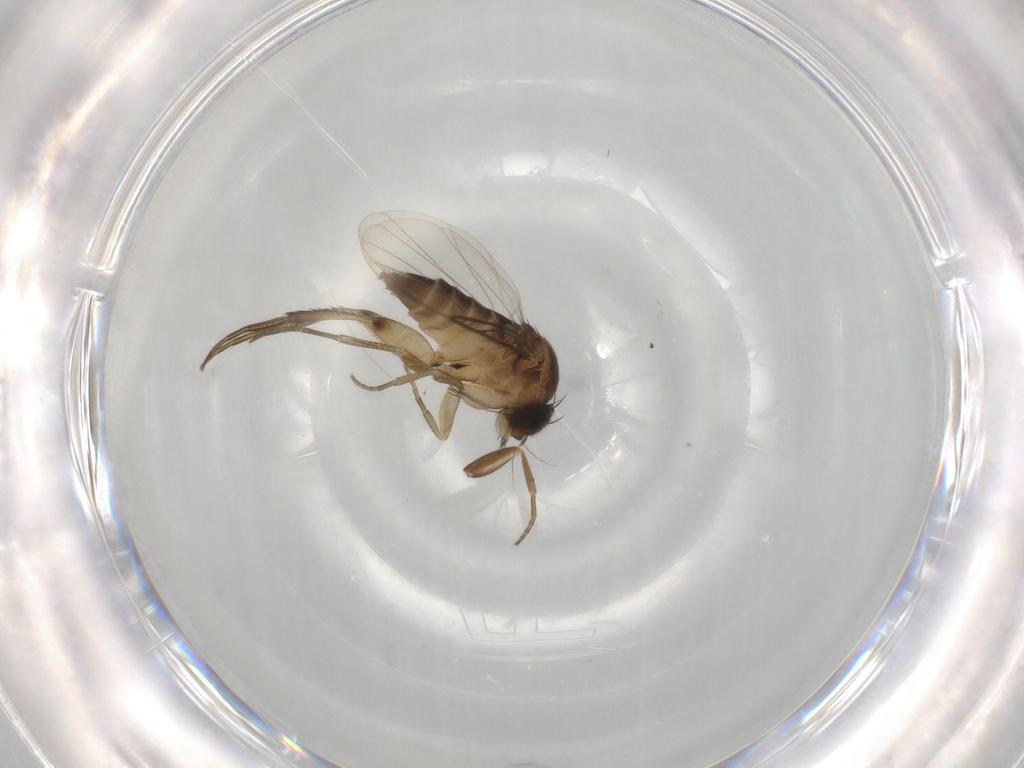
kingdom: Animalia
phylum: Arthropoda
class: Insecta
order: Diptera
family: Phoridae
